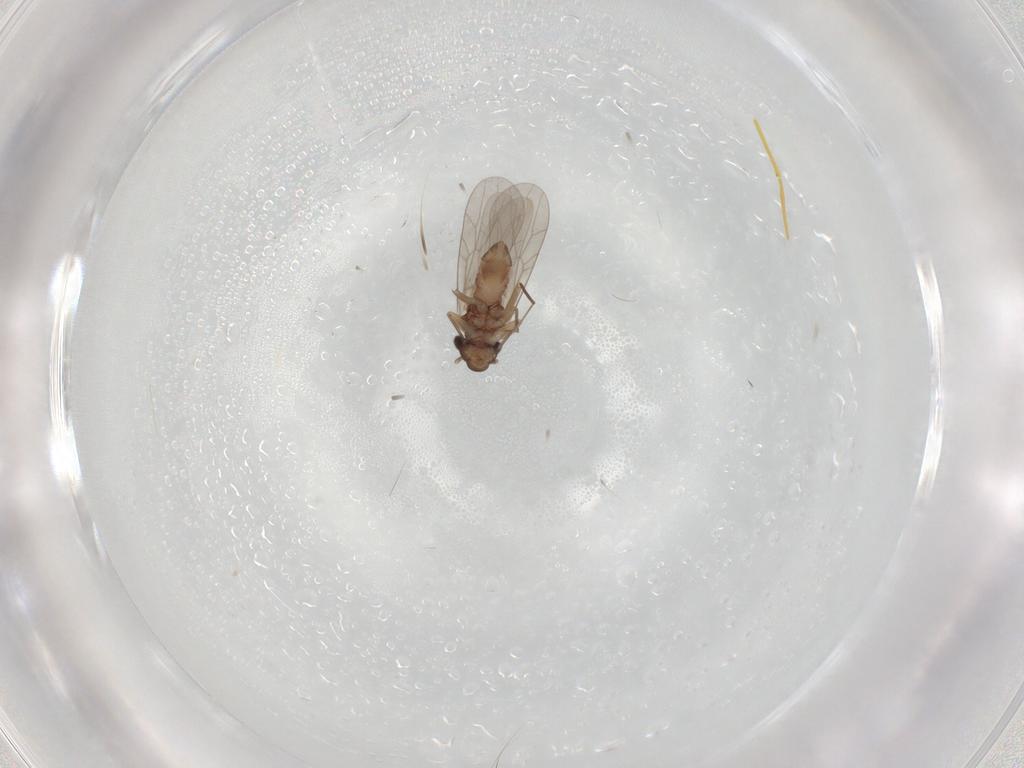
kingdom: Animalia
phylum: Arthropoda
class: Insecta
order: Psocodea
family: Lepidopsocidae
